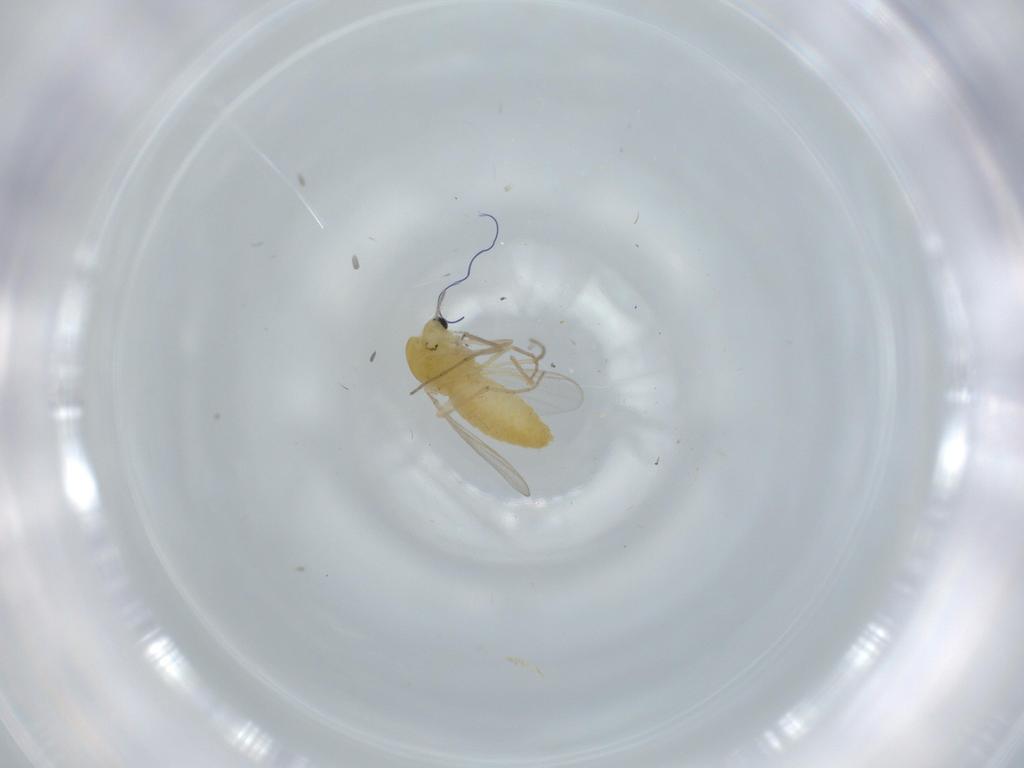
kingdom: Animalia
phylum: Arthropoda
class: Insecta
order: Diptera
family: Chironomidae
